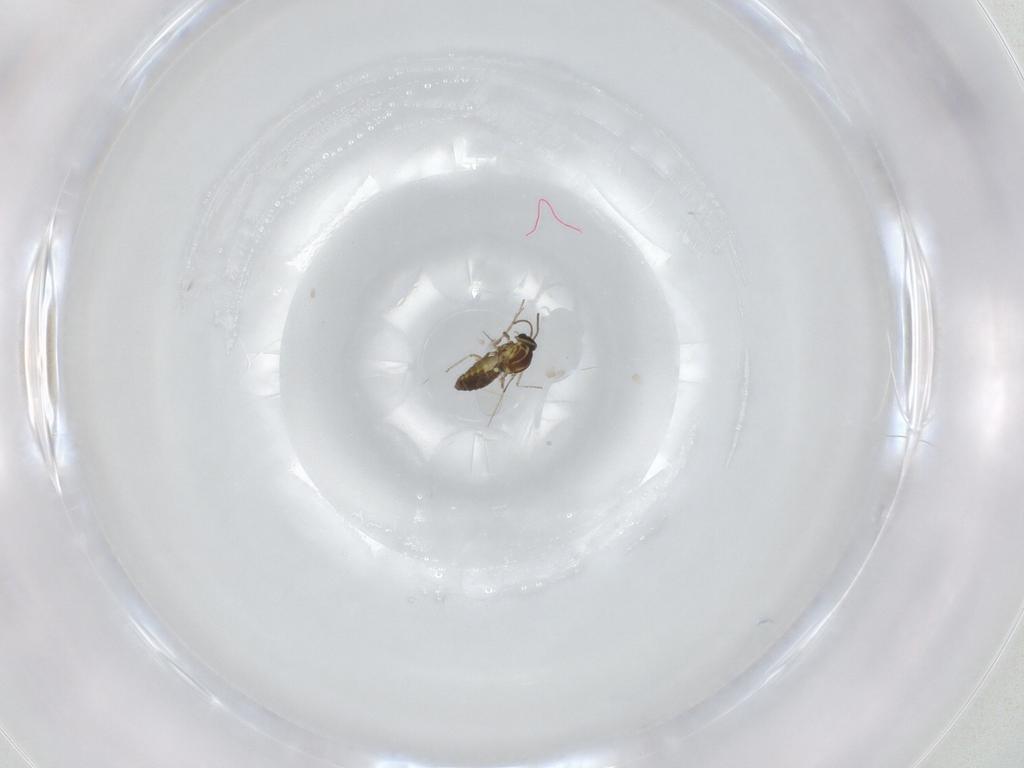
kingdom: Animalia
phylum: Arthropoda
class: Insecta
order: Diptera
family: Ceratopogonidae
